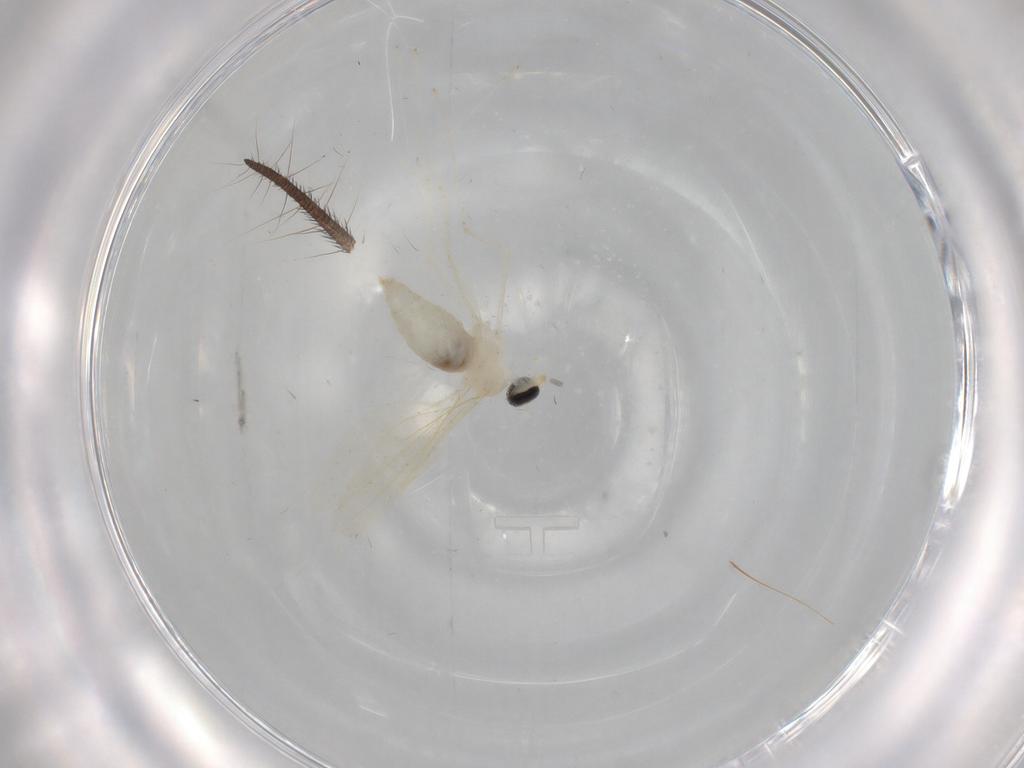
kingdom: Animalia
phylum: Arthropoda
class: Insecta
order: Diptera
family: Cecidomyiidae
